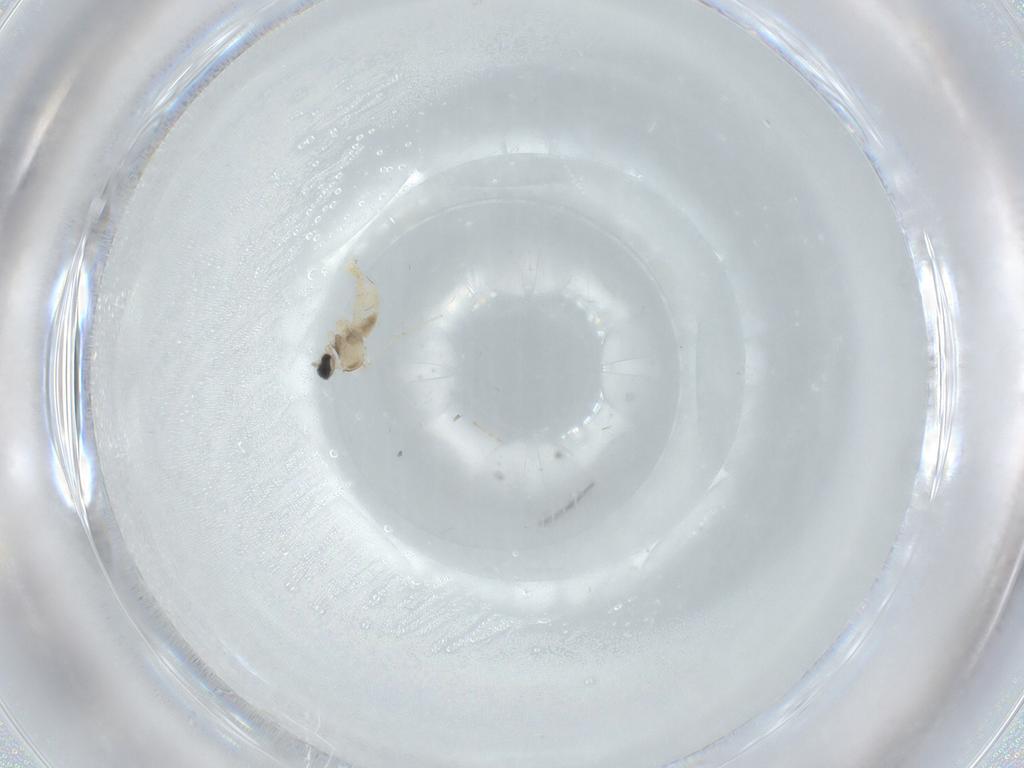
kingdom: Animalia
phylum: Arthropoda
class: Insecta
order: Diptera
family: Cecidomyiidae
